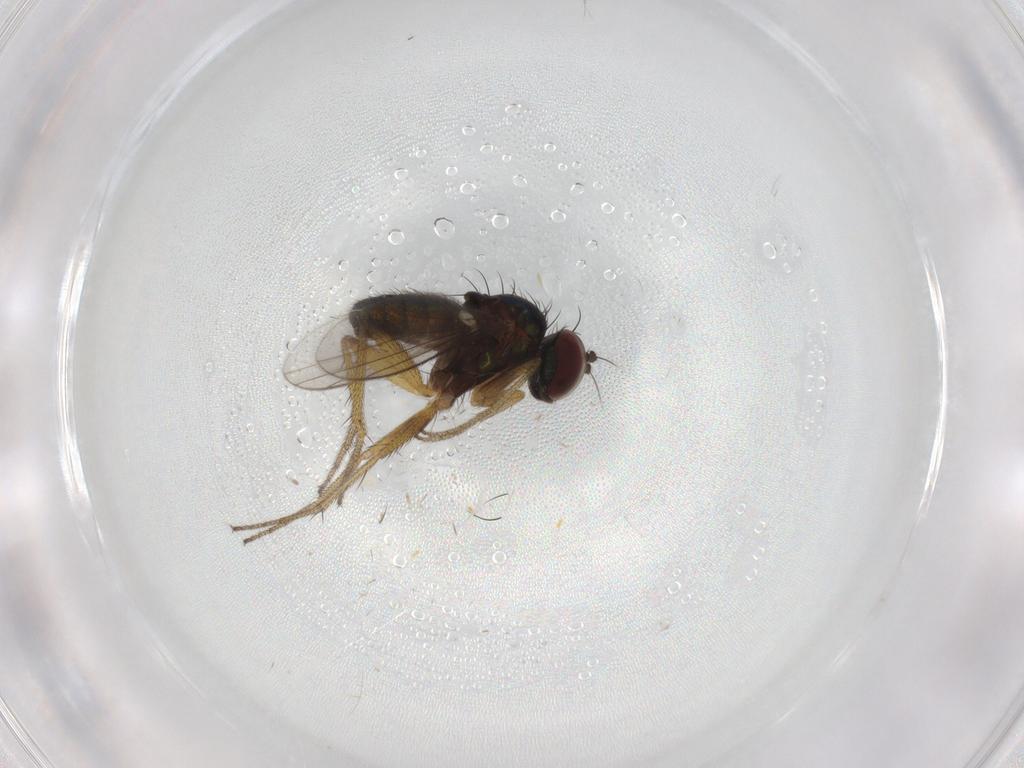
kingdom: Animalia
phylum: Arthropoda
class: Insecta
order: Diptera
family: Dolichopodidae
